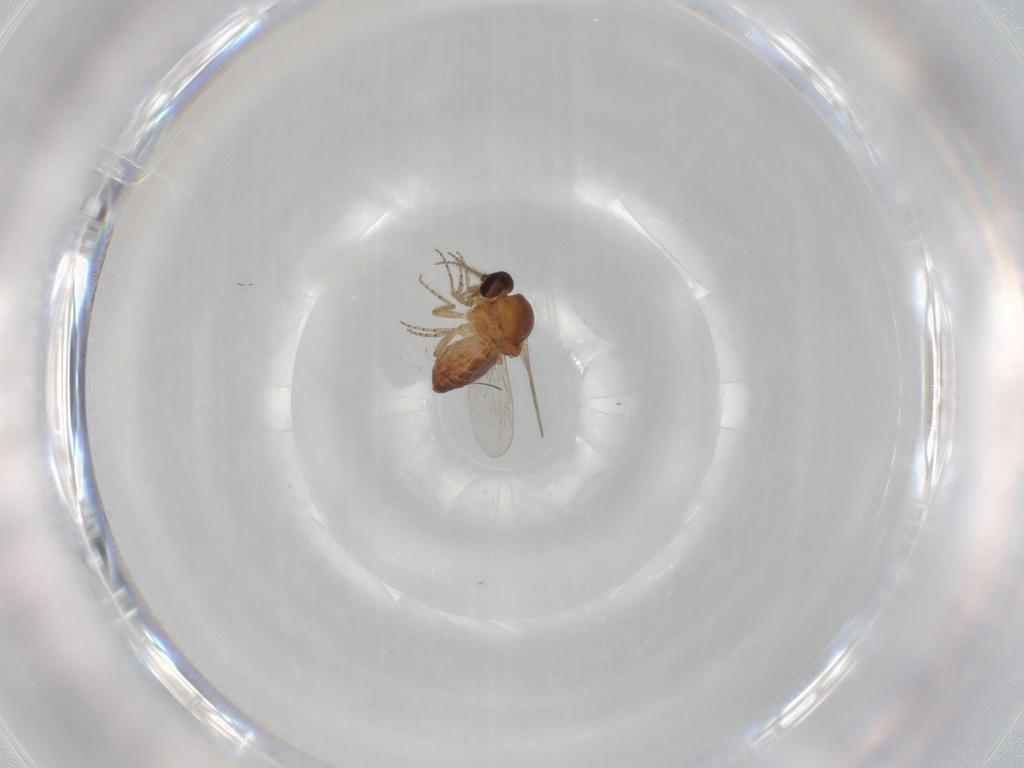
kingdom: Animalia
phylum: Arthropoda
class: Insecta
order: Diptera
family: Ceratopogonidae
